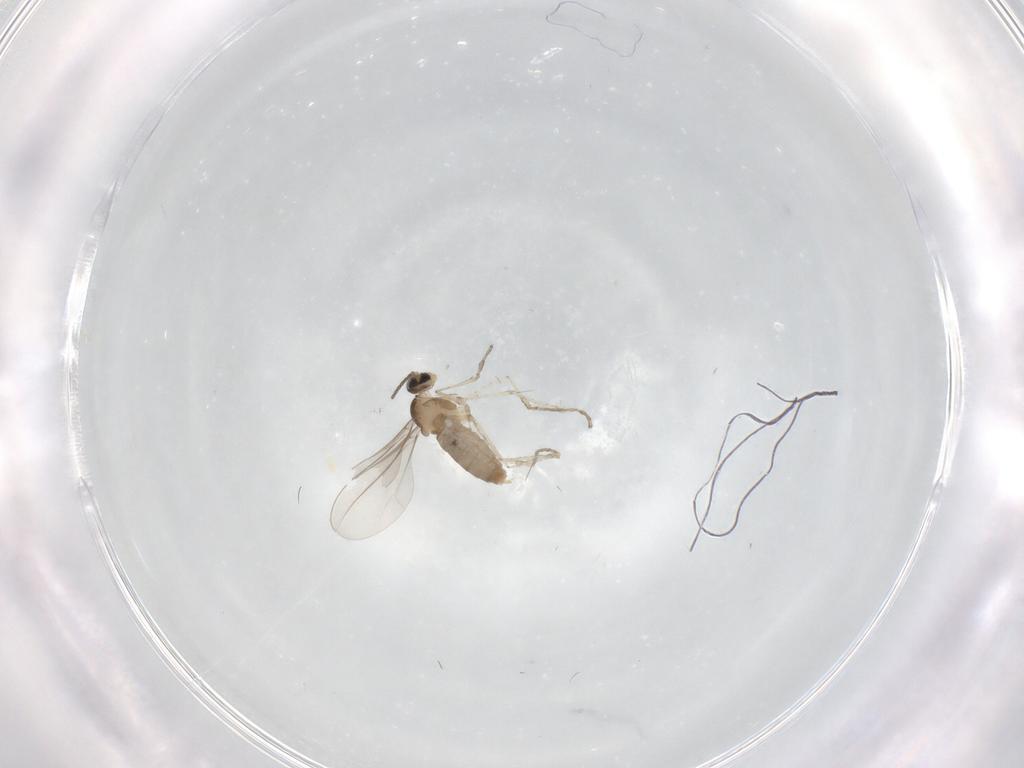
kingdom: Animalia
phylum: Arthropoda
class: Insecta
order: Diptera
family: Cecidomyiidae
